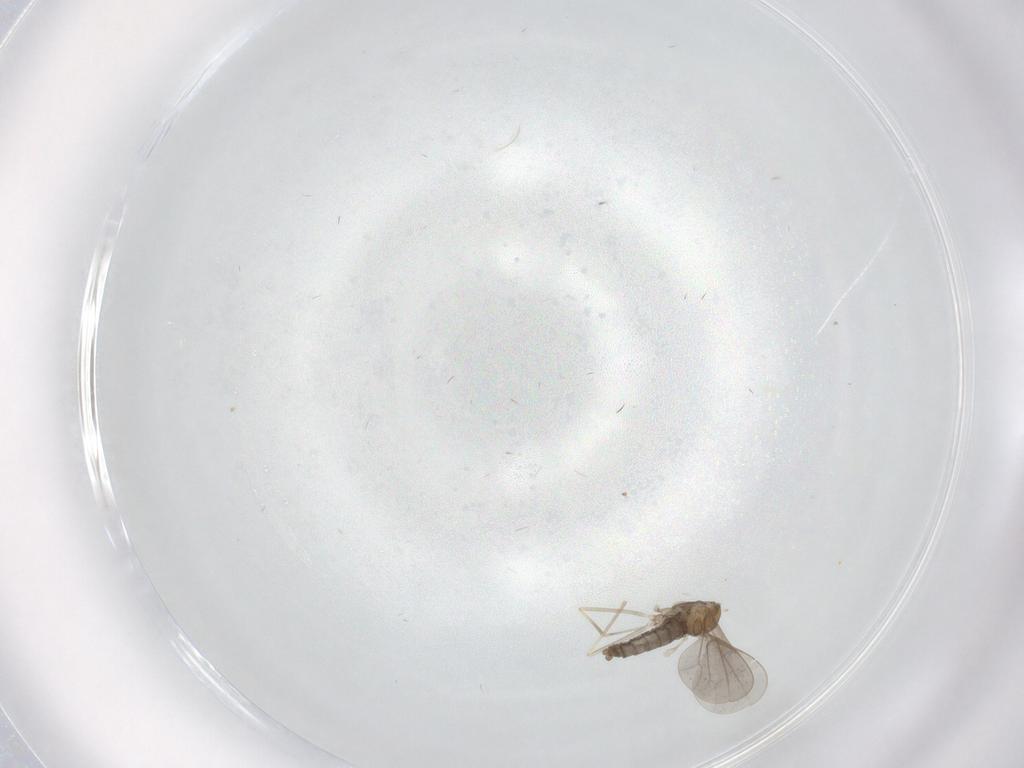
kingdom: Animalia
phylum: Arthropoda
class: Insecta
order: Diptera
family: Cecidomyiidae
